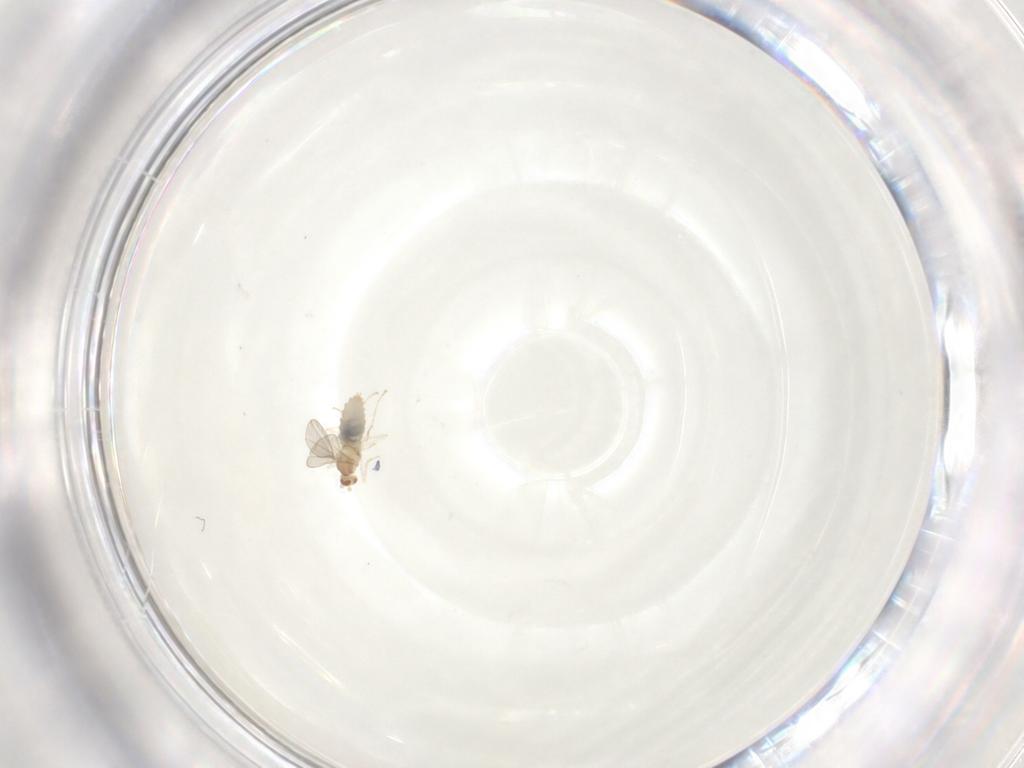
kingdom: Animalia
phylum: Arthropoda
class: Insecta
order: Diptera
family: Cecidomyiidae
